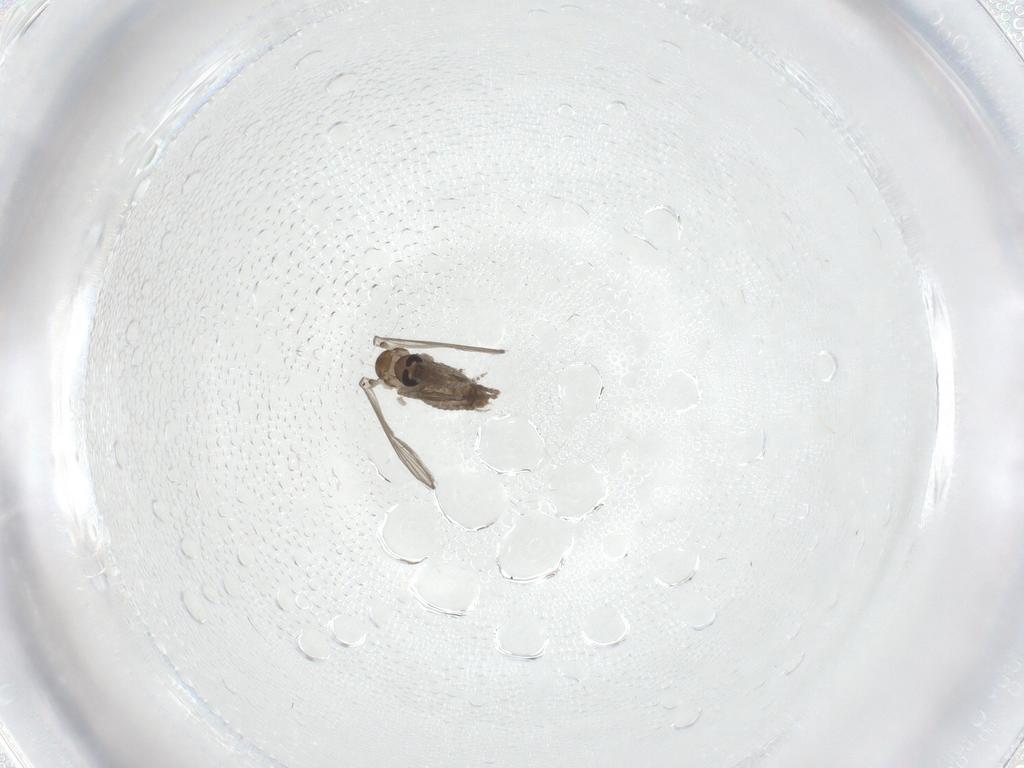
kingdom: Animalia
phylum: Arthropoda
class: Insecta
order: Diptera
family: Psychodidae
